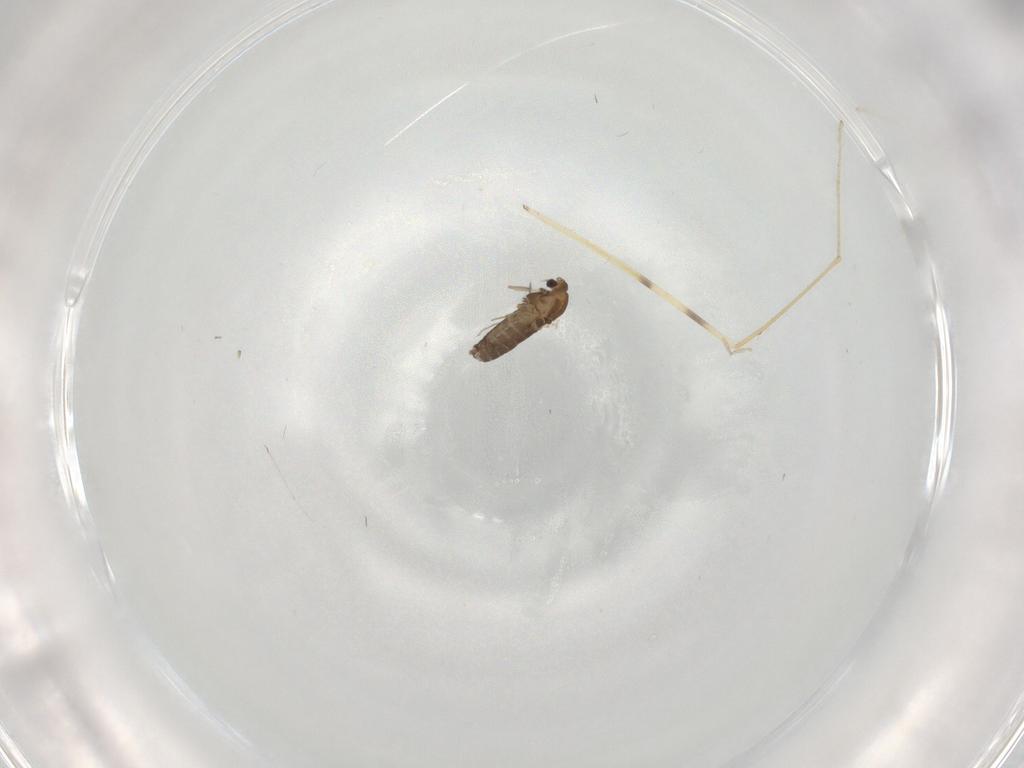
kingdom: Animalia
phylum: Arthropoda
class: Insecta
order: Diptera
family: Chironomidae
